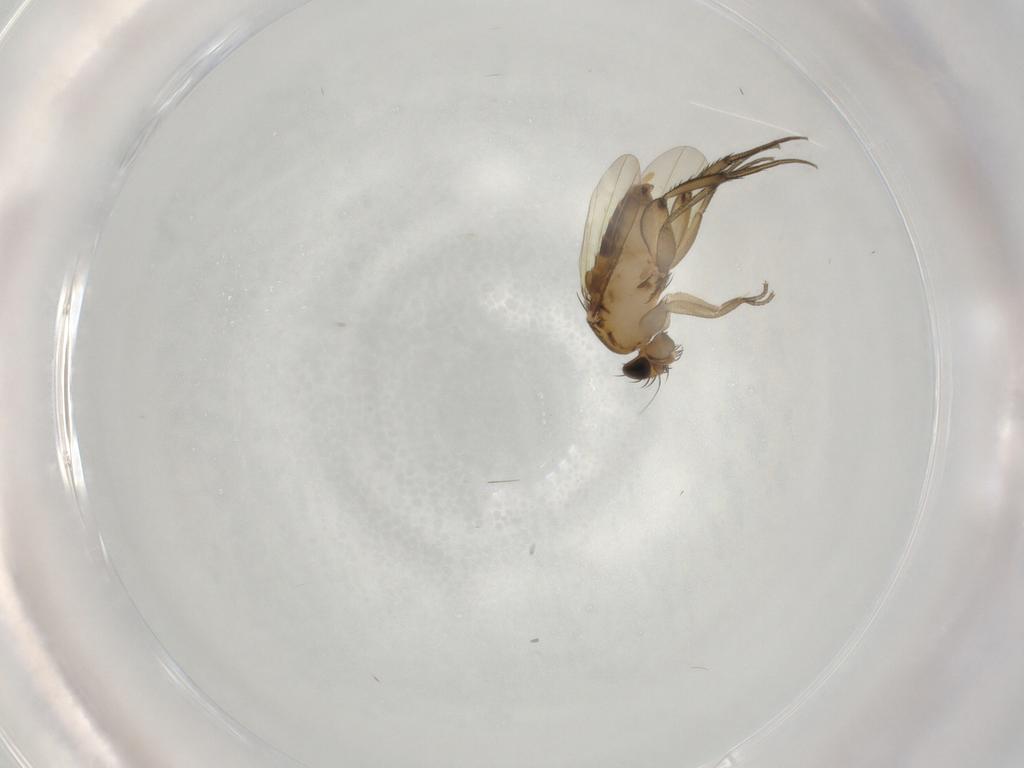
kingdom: Animalia
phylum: Arthropoda
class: Insecta
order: Diptera
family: Phoridae
